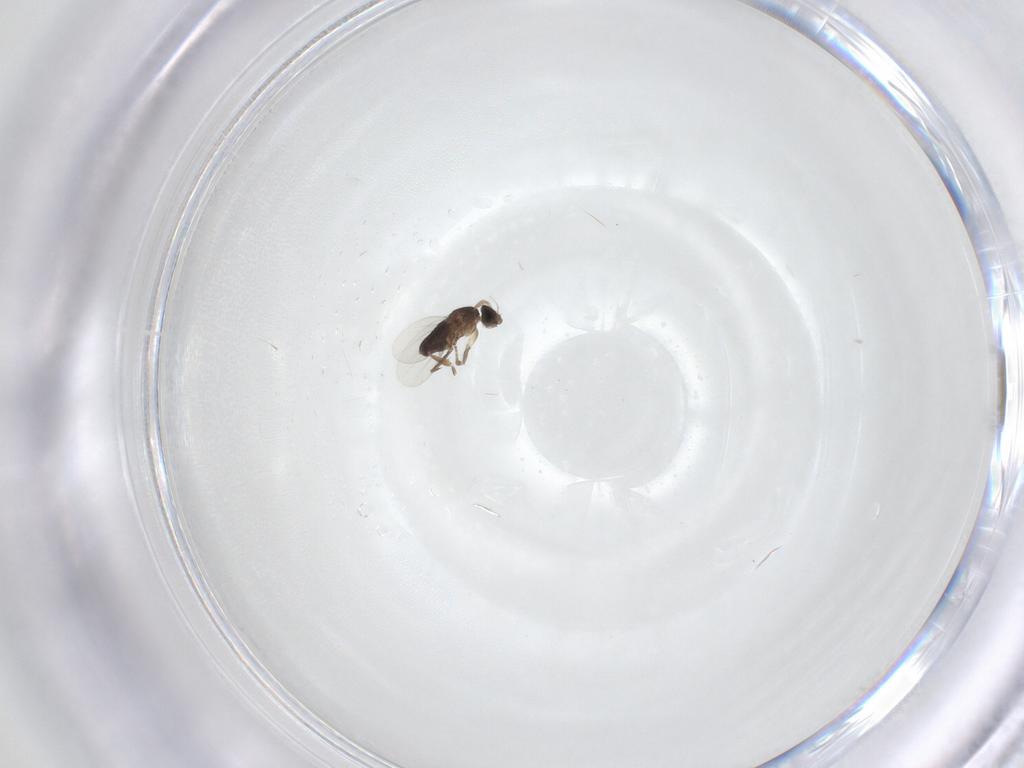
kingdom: Animalia
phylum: Arthropoda
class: Insecta
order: Diptera
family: Phoridae
